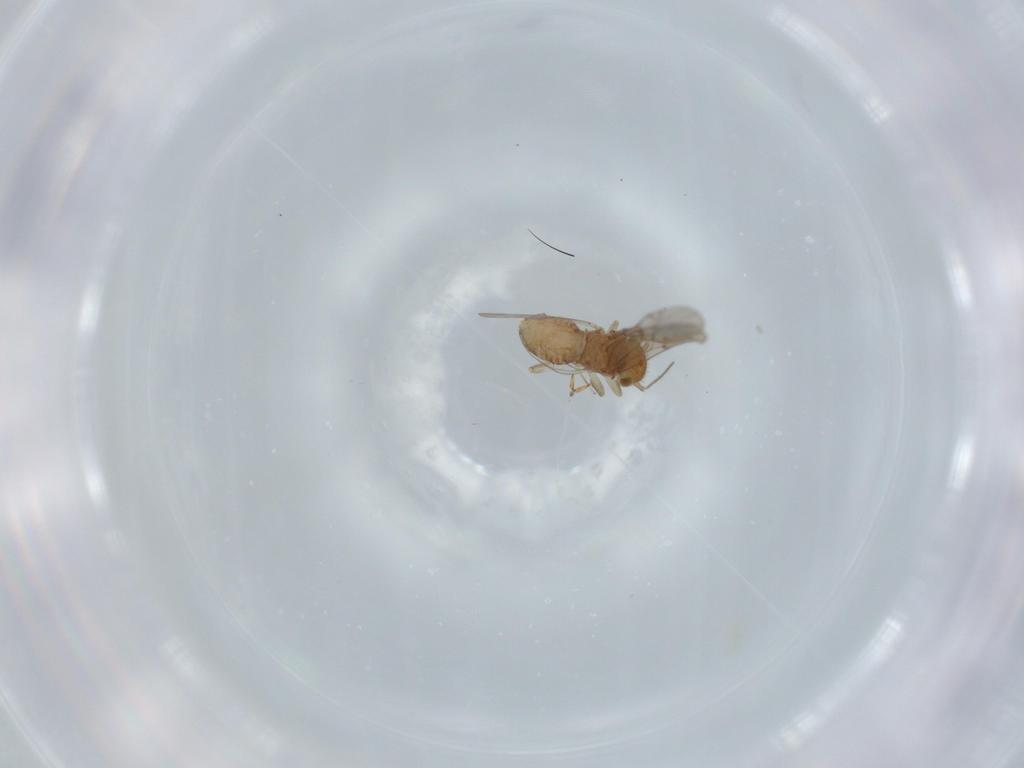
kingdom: Animalia
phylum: Arthropoda
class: Insecta
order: Psocodea
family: Ectopsocidae
